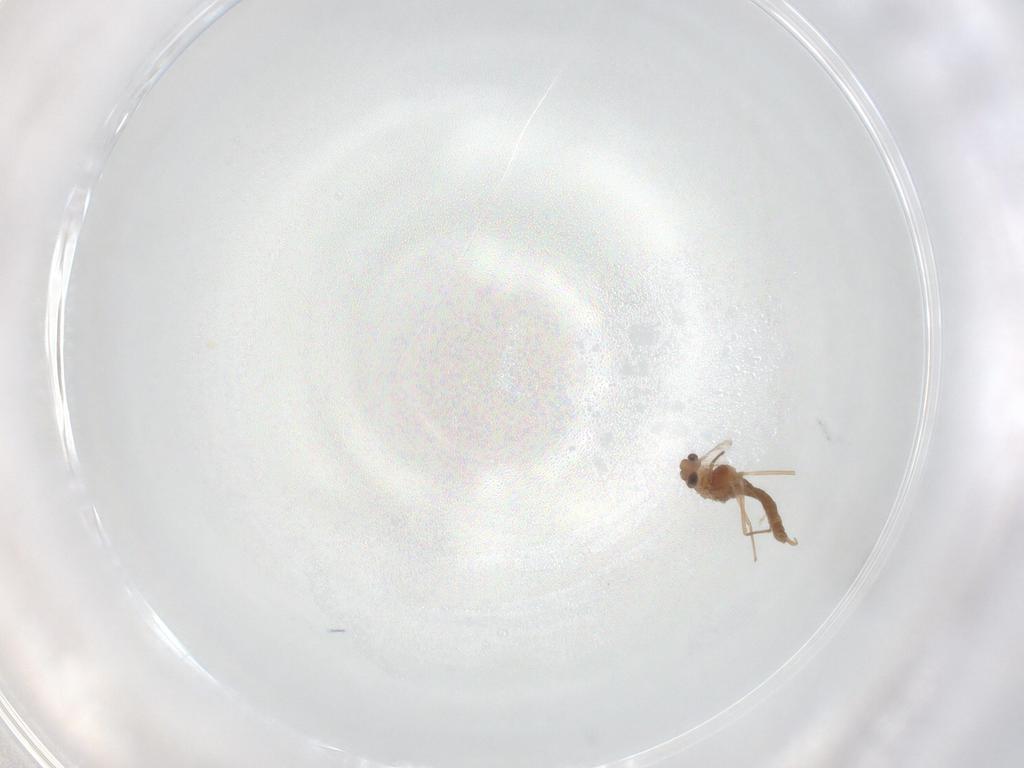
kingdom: Animalia
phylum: Arthropoda
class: Insecta
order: Diptera
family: Chironomidae
